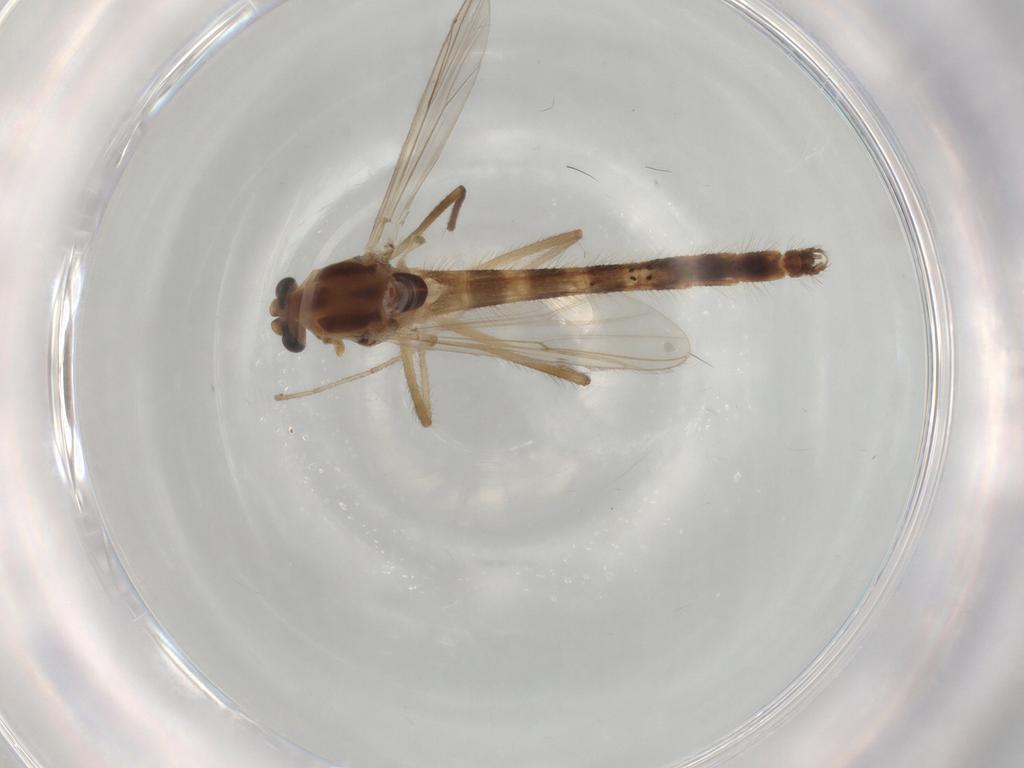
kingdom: Animalia
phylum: Arthropoda
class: Insecta
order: Diptera
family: Chironomidae
